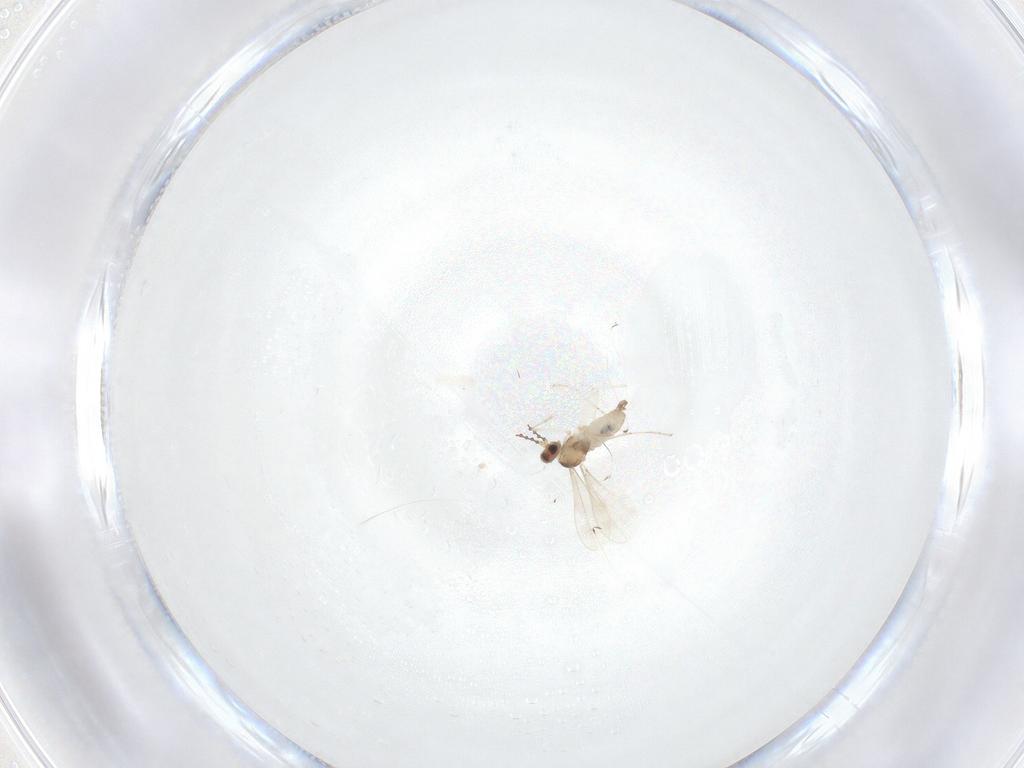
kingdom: Animalia
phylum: Arthropoda
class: Insecta
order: Diptera
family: Cecidomyiidae
